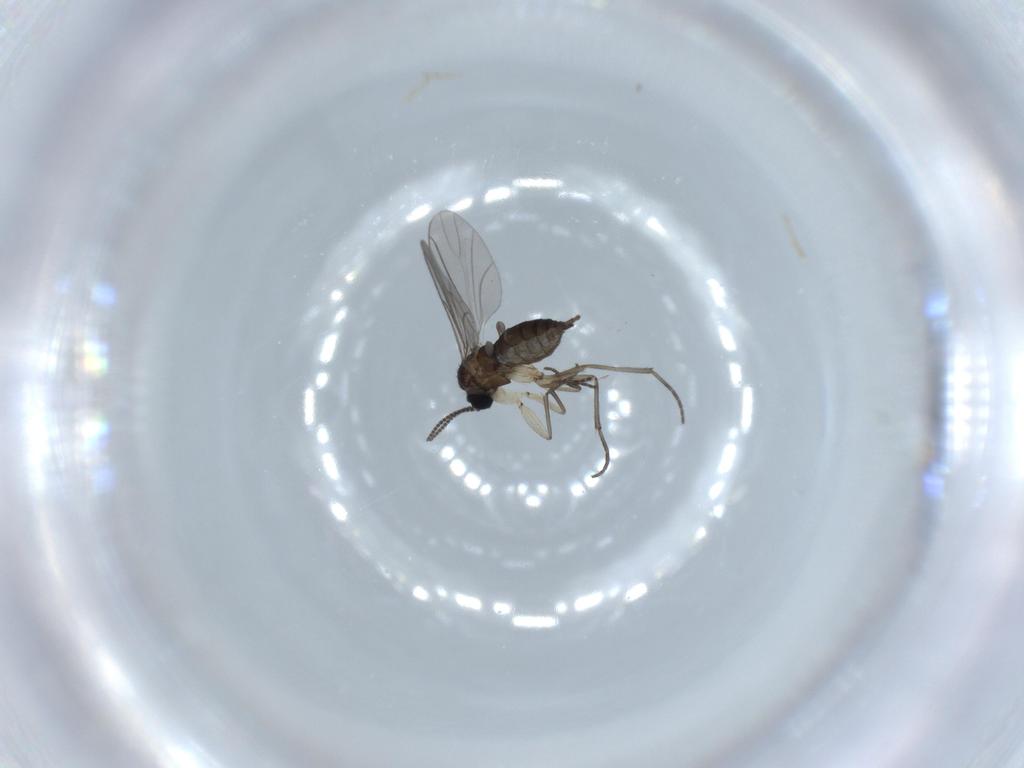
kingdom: Animalia
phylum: Arthropoda
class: Insecta
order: Diptera
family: Sciaridae
